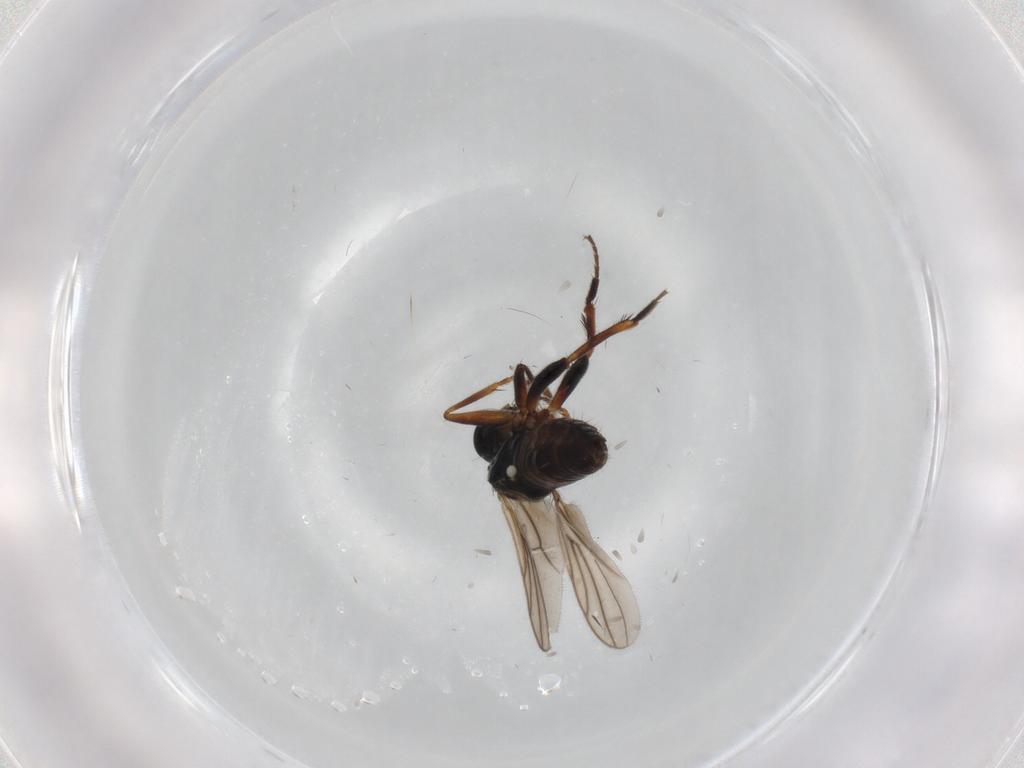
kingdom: Animalia
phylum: Arthropoda
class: Insecta
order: Diptera
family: Hybotidae
